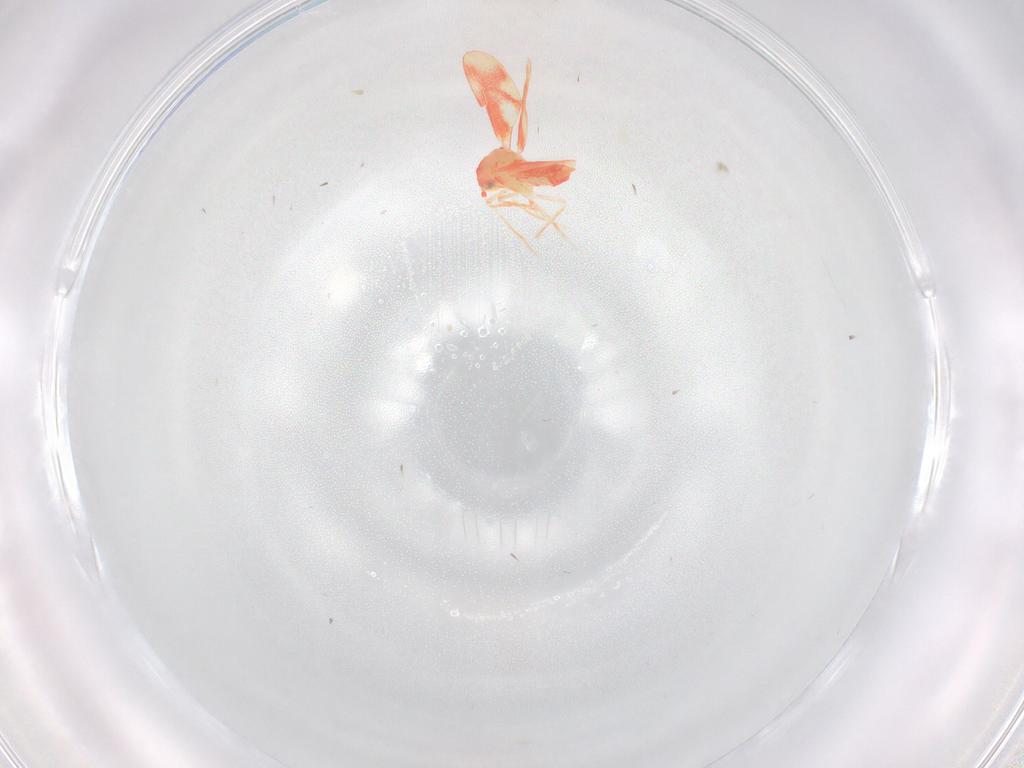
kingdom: Animalia
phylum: Arthropoda
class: Insecta
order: Hemiptera
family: Aleyrodidae
